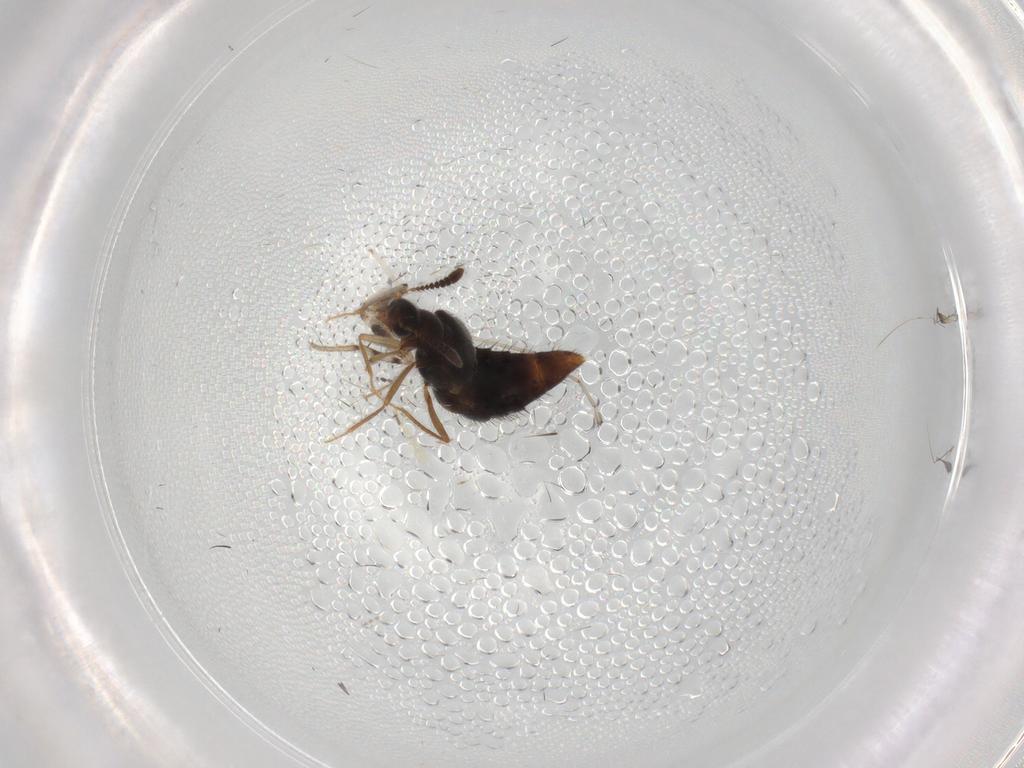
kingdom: Animalia
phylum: Arthropoda
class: Insecta
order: Coleoptera
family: Staphylinidae
